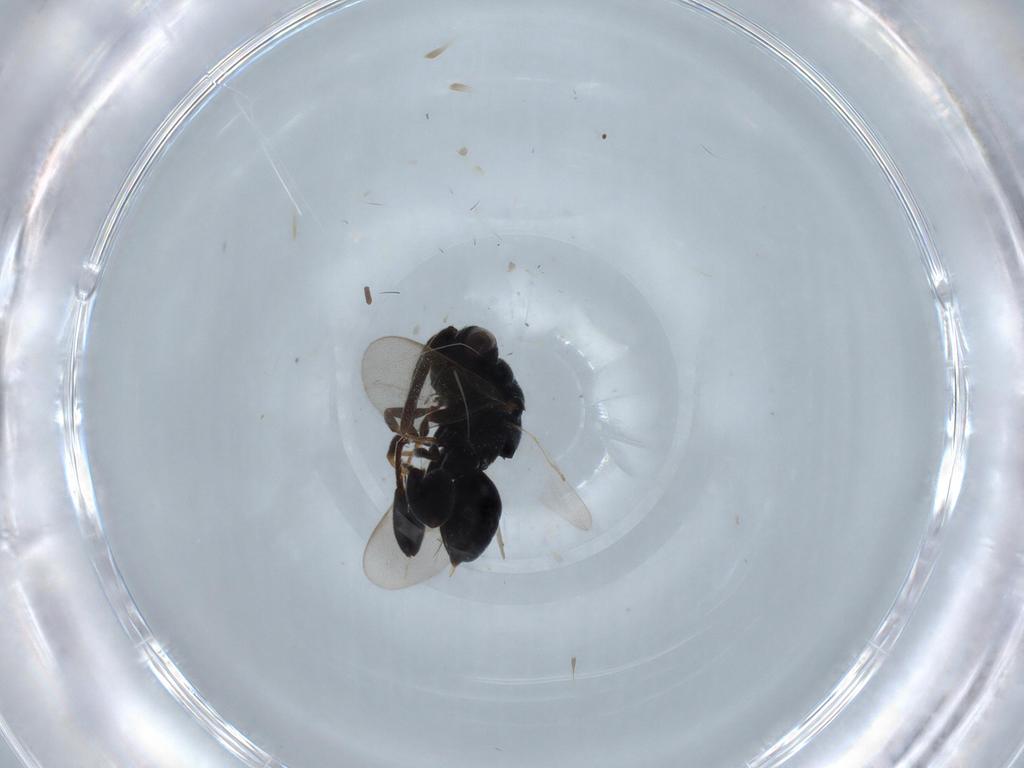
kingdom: Animalia
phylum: Arthropoda
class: Insecta
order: Hymenoptera
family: Chalcididae
